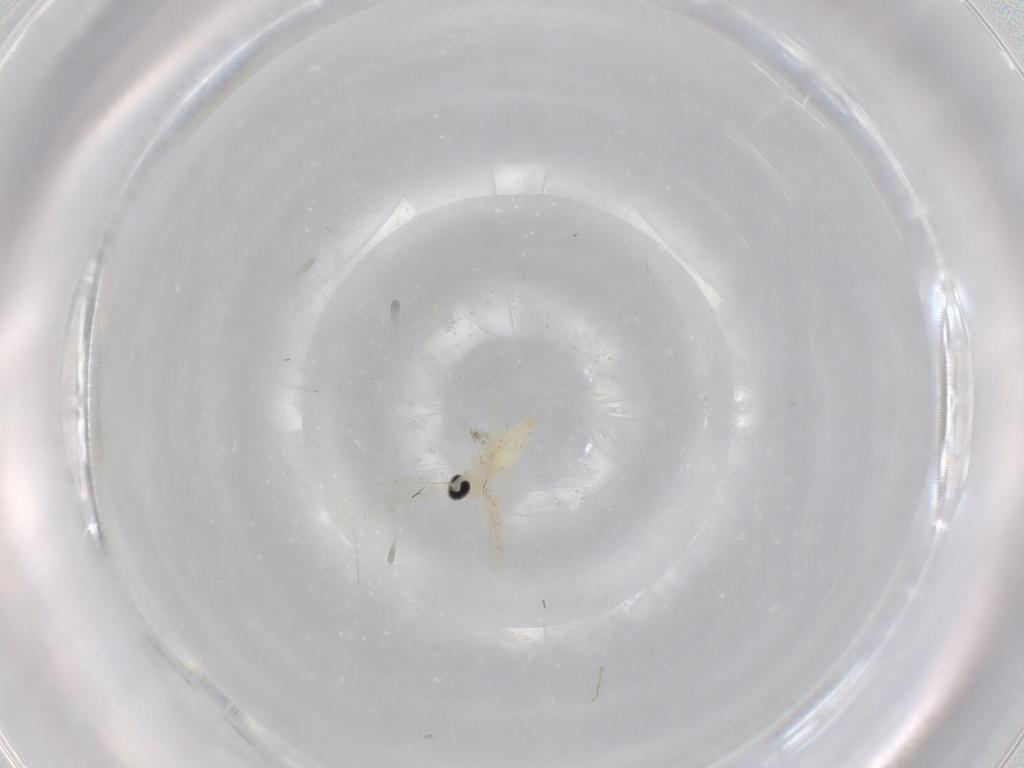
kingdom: Animalia
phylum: Arthropoda
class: Insecta
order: Diptera
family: Cecidomyiidae
